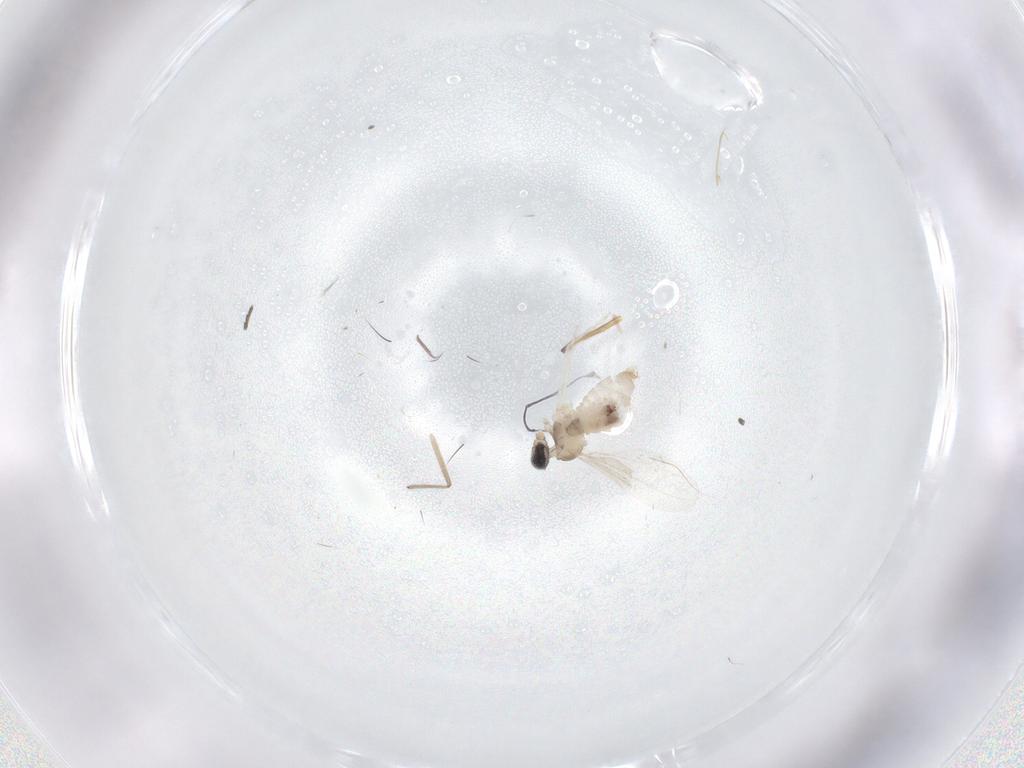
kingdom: Animalia
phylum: Arthropoda
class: Insecta
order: Diptera
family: Cecidomyiidae
